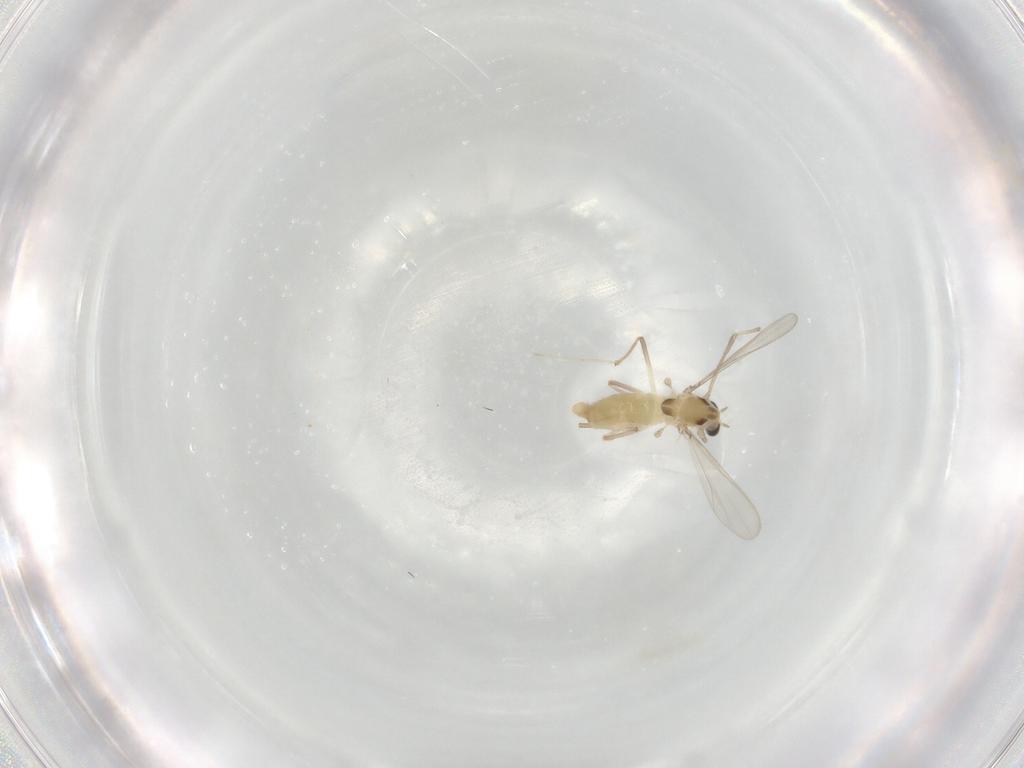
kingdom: Animalia
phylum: Arthropoda
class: Insecta
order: Diptera
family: Chironomidae
